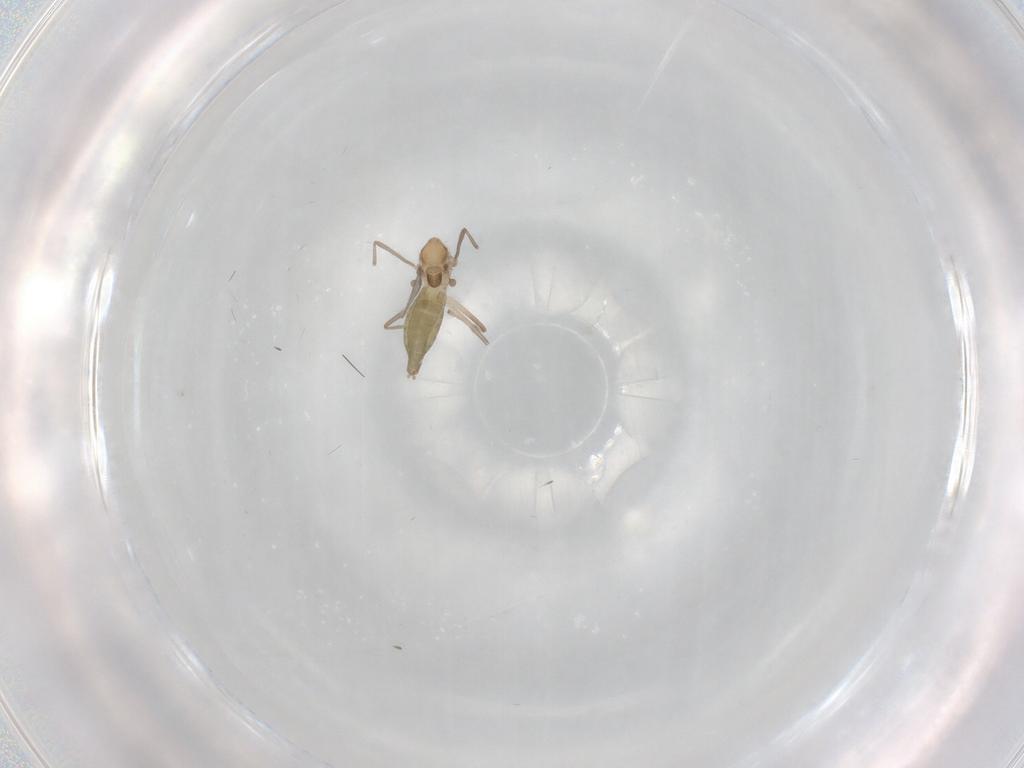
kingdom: Animalia
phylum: Arthropoda
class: Insecta
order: Diptera
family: Chironomidae
